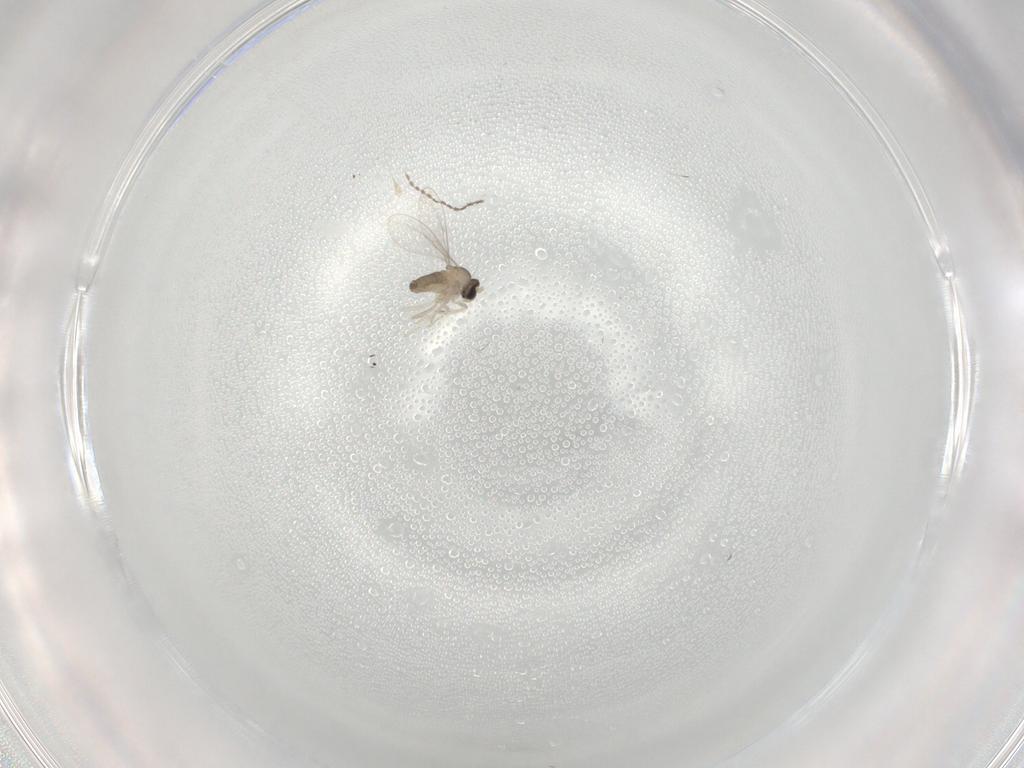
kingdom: Animalia
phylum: Arthropoda
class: Insecta
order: Diptera
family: Cecidomyiidae
